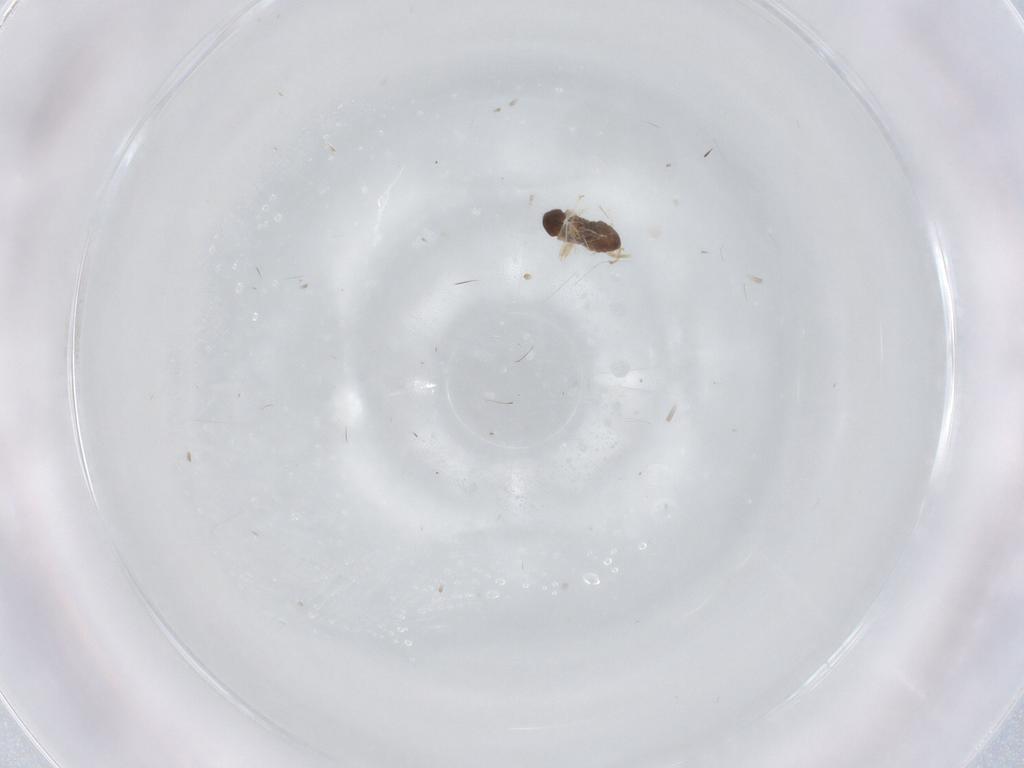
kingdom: Animalia
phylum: Arthropoda
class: Insecta
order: Diptera
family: Cecidomyiidae
